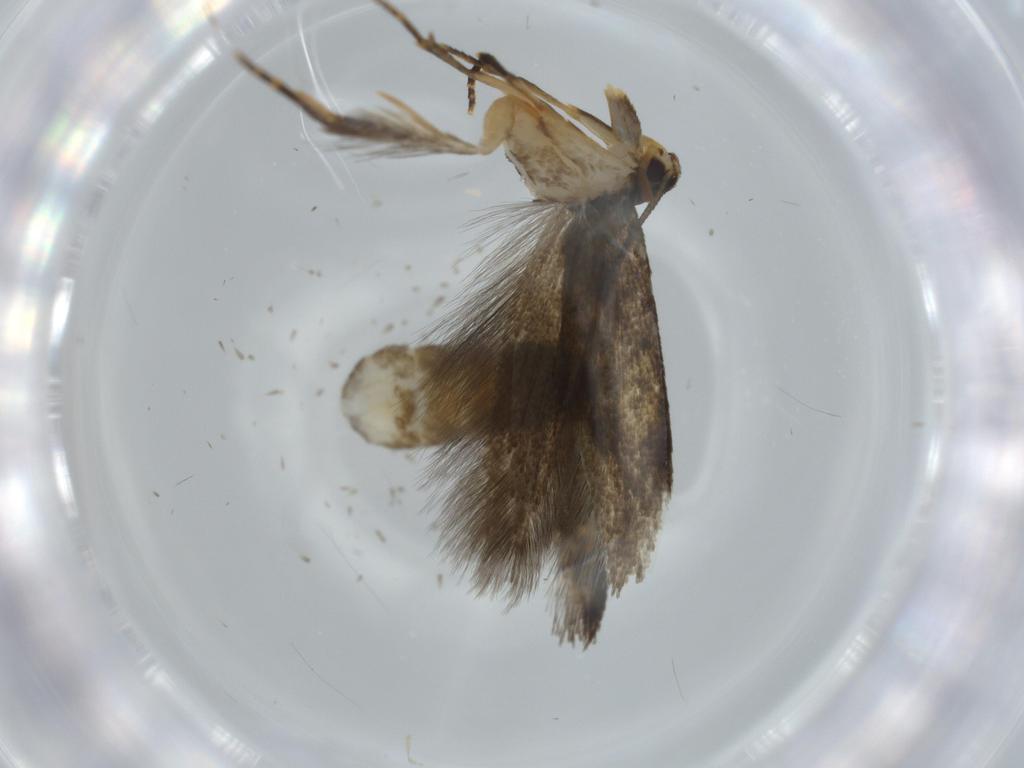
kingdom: Animalia
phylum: Arthropoda
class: Insecta
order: Lepidoptera
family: Tineidae
